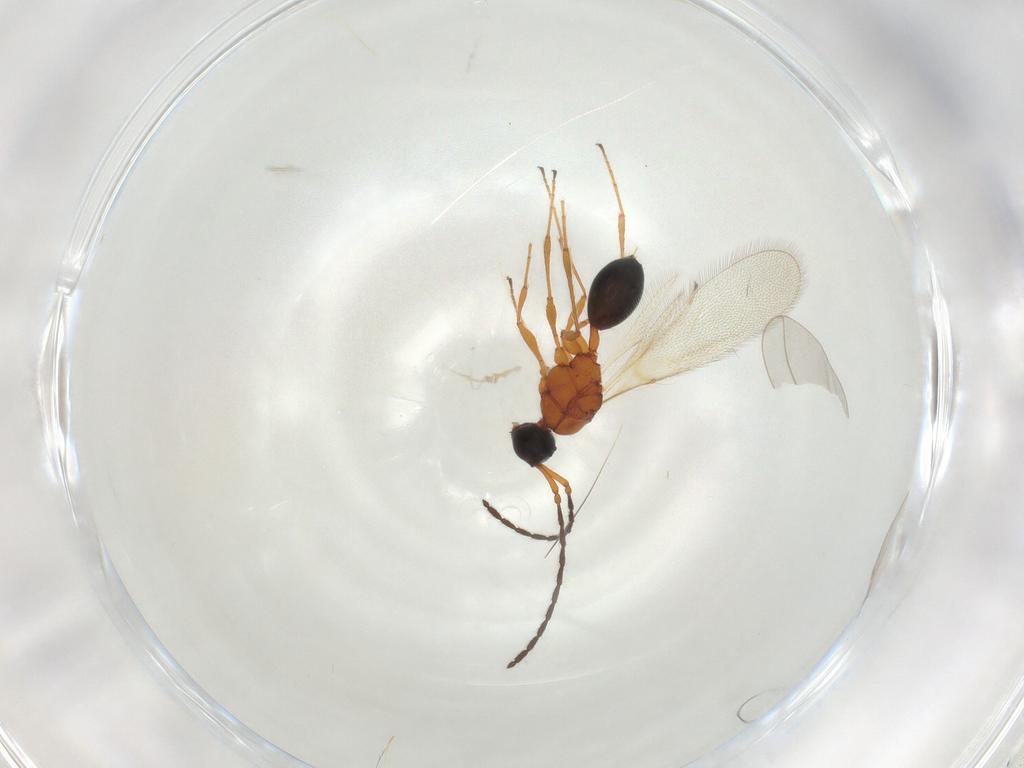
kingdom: Animalia
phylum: Arthropoda
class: Insecta
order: Hymenoptera
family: Diapriidae
